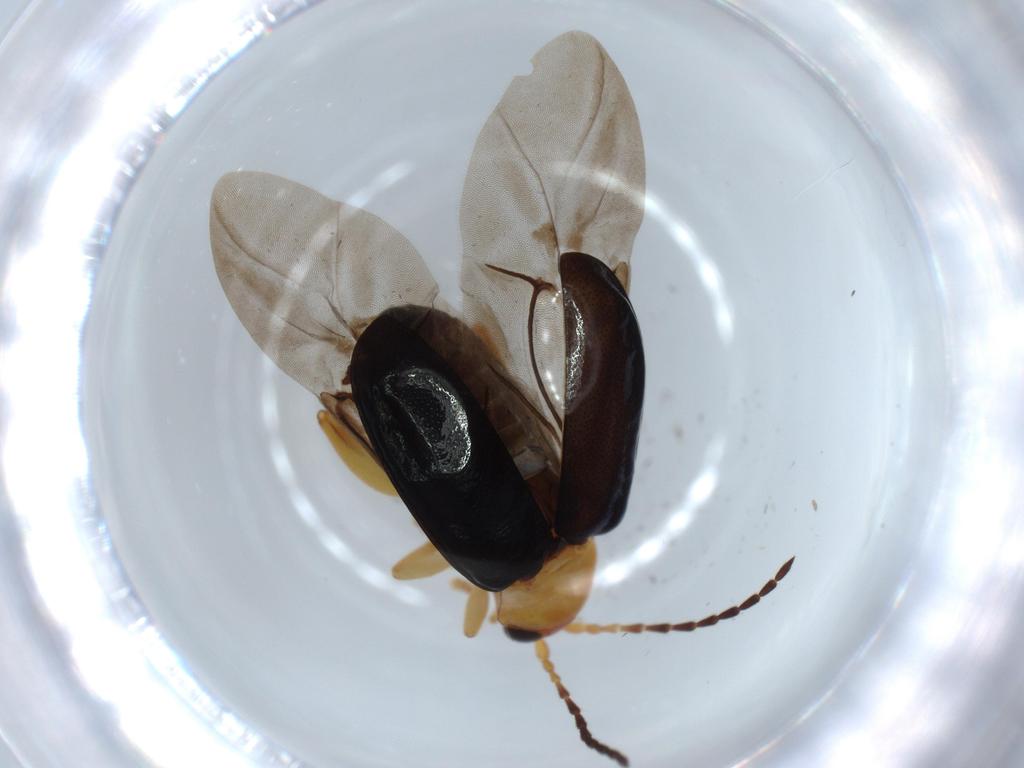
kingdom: Animalia
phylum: Arthropoda
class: Insecta
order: Coleoptera
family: Chrysomelidae
